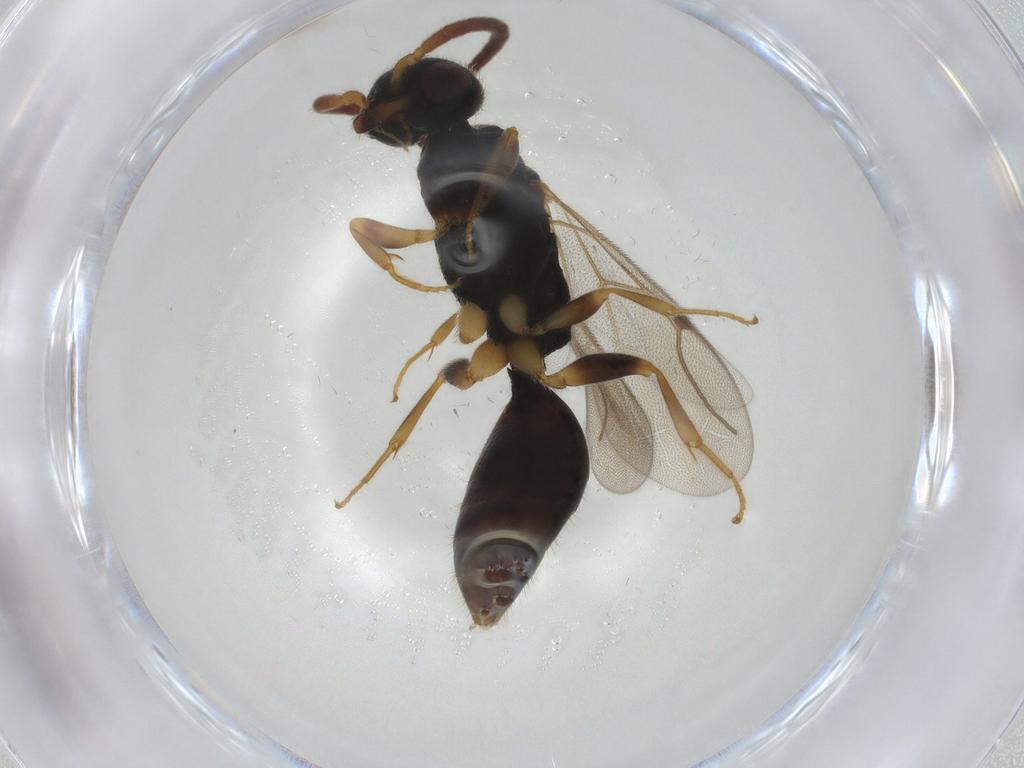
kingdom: Animalia
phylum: Arthropoda
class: Insecta
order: Hymenoptera
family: Bethylidae
